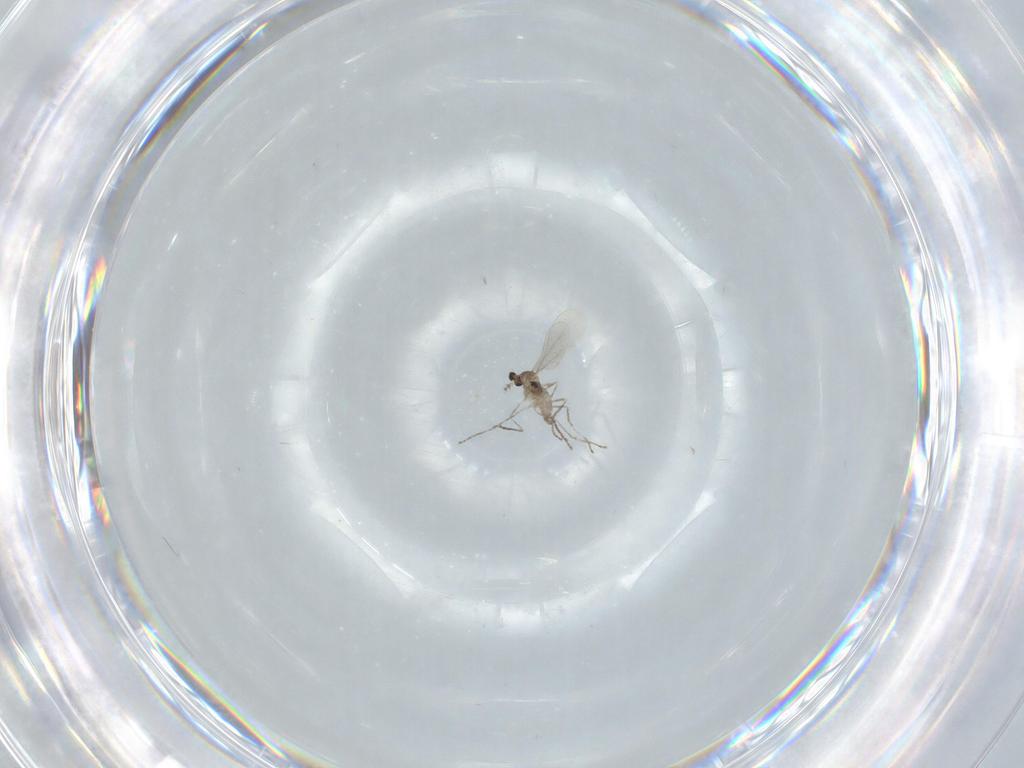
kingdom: Animalia
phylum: Arthropoda
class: Insecta
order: Diptera
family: Cecidomyiidae
